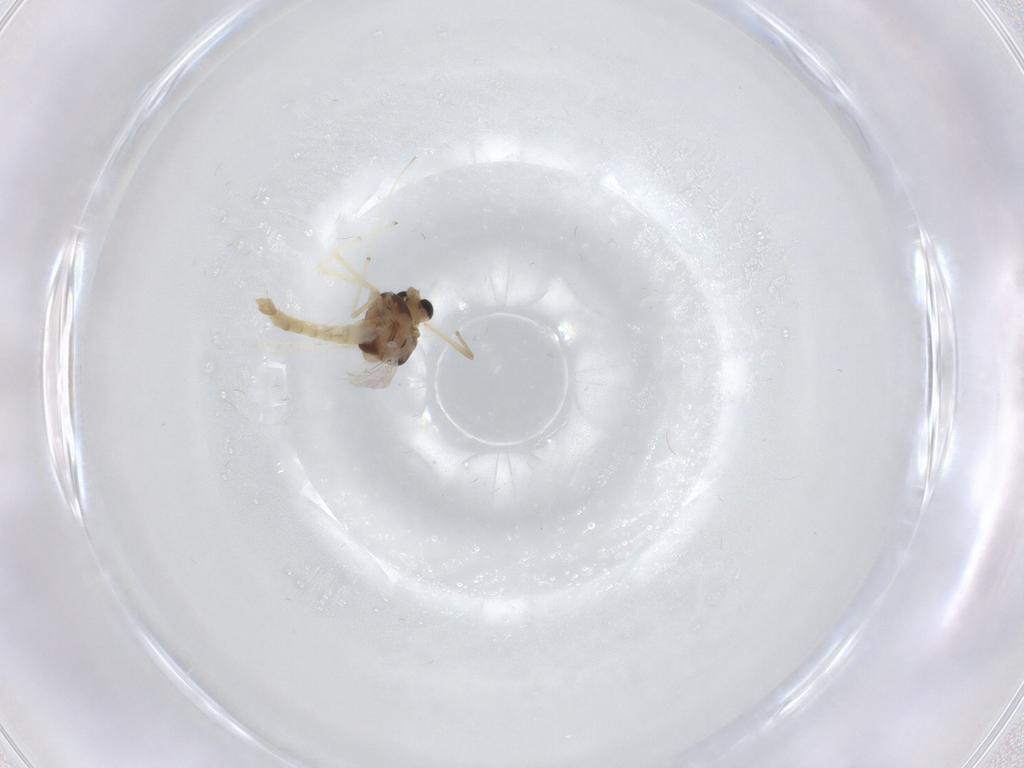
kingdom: Animalia
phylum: Arthropoda
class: Insecta
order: Diptera
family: Chironomidae
